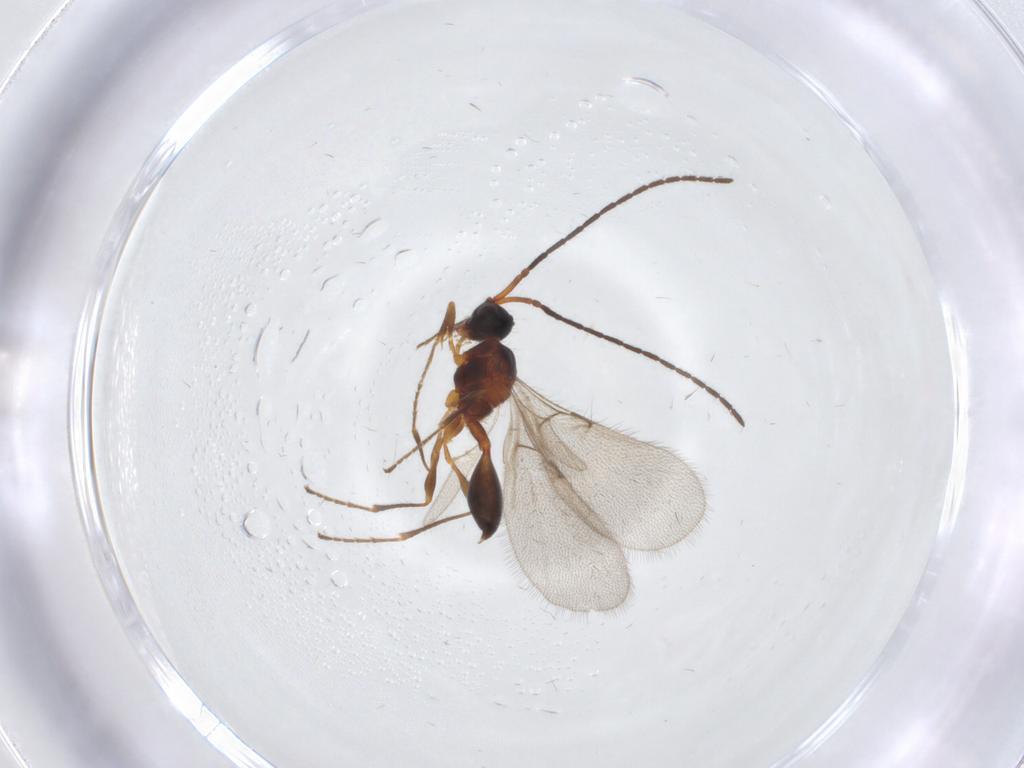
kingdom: Animalia
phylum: Arthropoda
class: Insecta
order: Hymenoptera
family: Diapriidae
